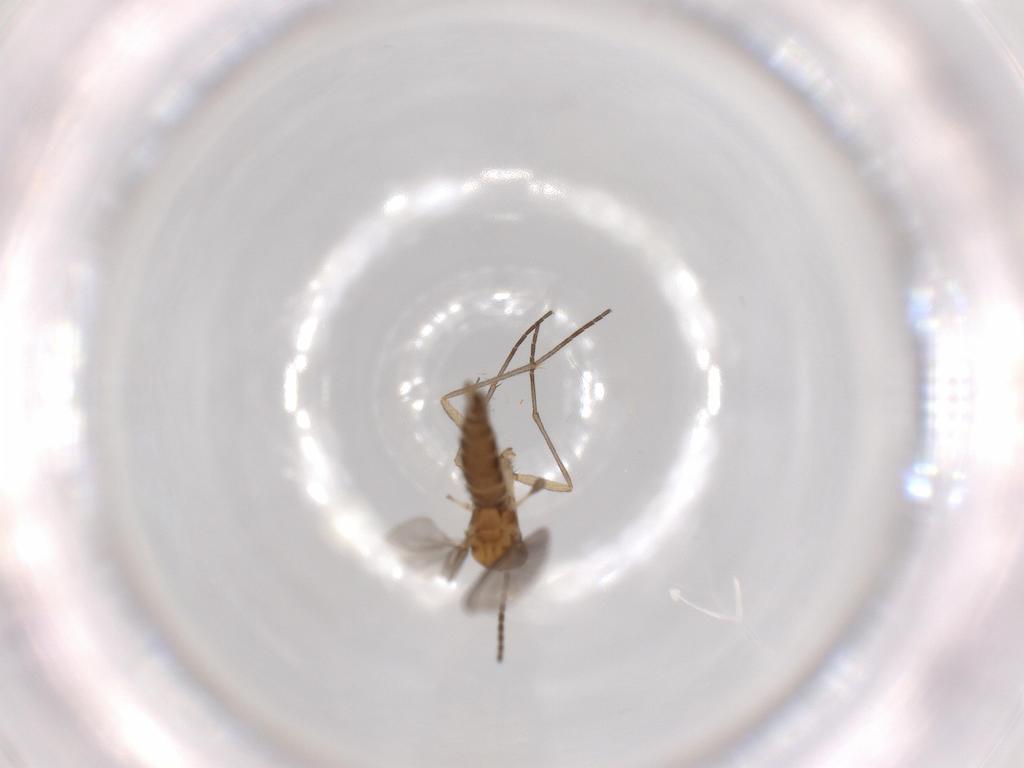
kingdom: Animalia
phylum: Arthropoda
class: Insecta
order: Diptera
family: Sciaridae
